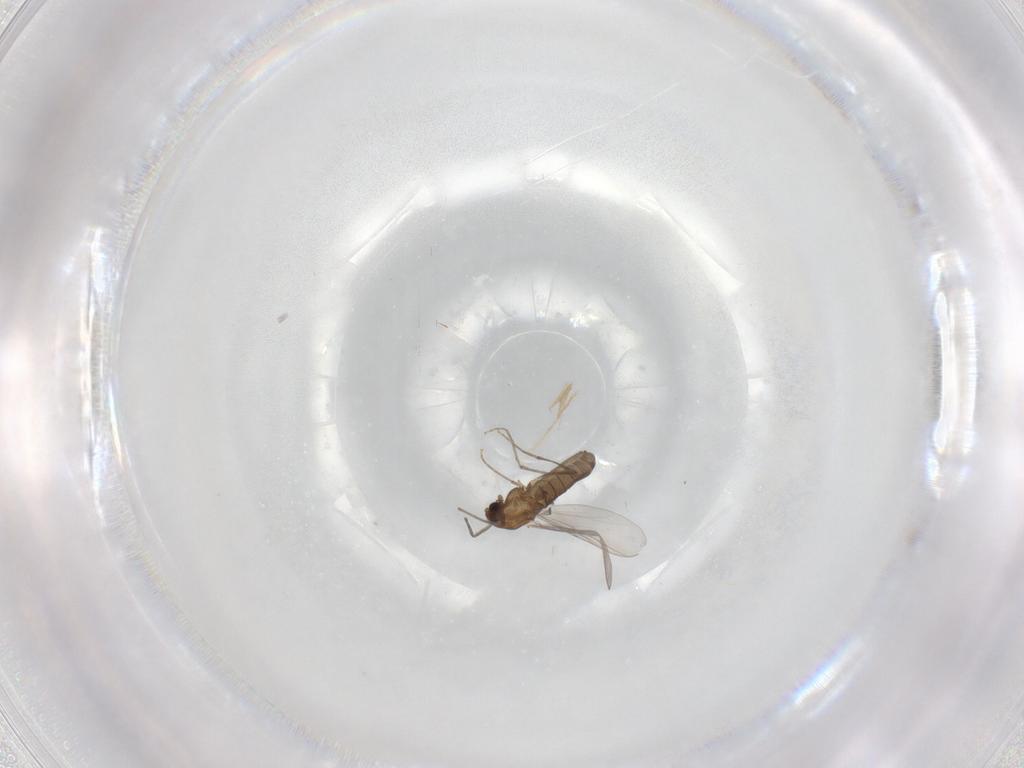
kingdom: Animalia
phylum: Arthropoda
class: Insecta
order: Diptera
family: Chironomidae
